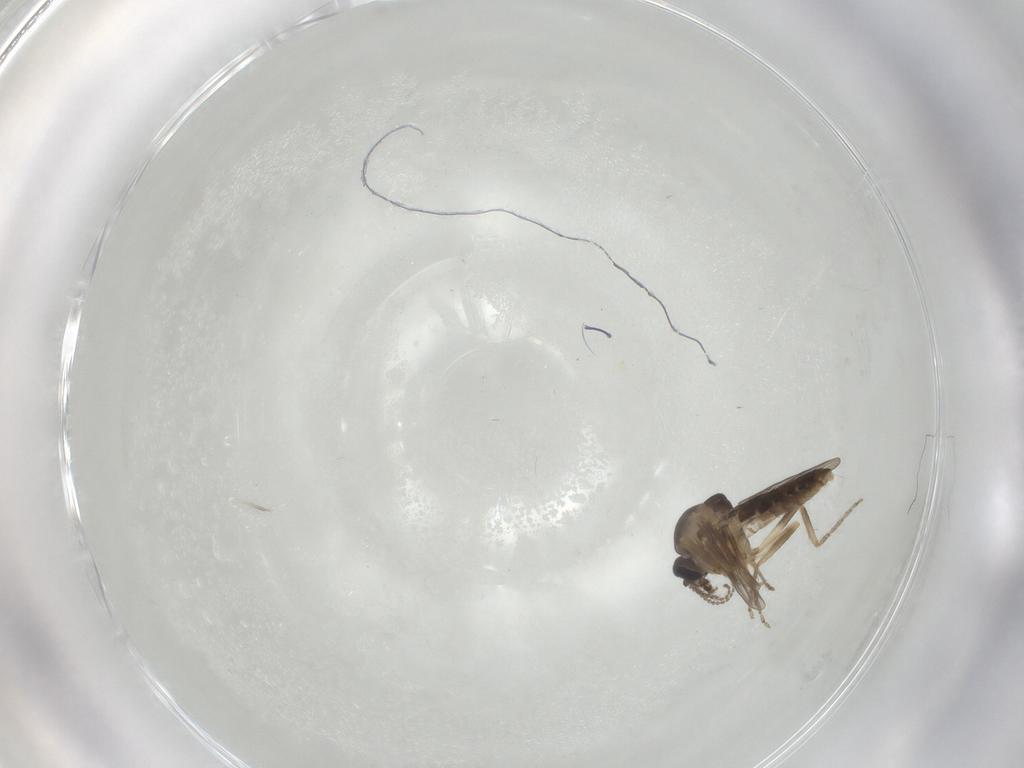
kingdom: Animalia
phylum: Arthropoda
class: Insecta
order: Diptera
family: Ceratopogonidae
